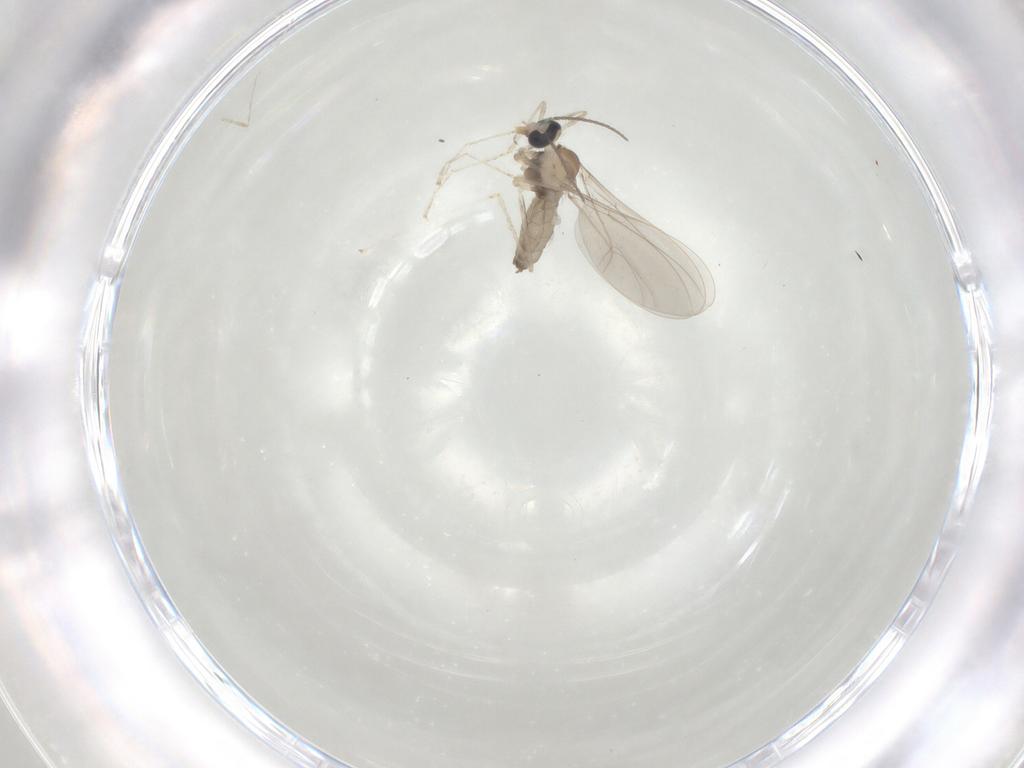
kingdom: Animalia
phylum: Arthropoda
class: Insecta
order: Diptera
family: Cecidomyiidae
